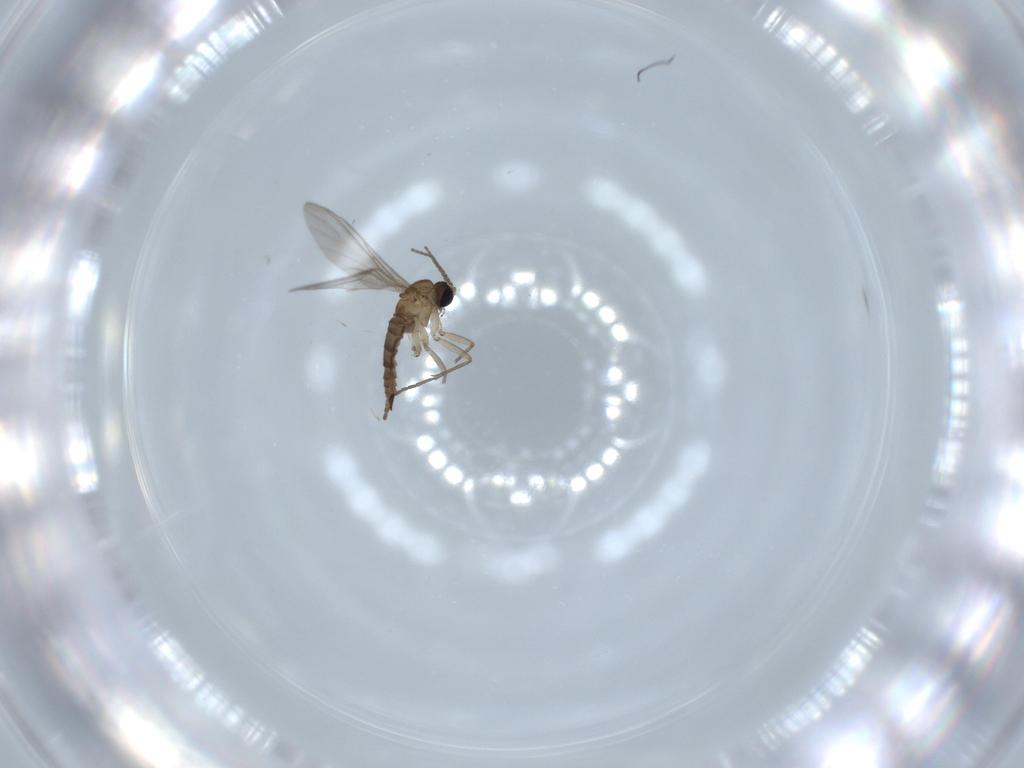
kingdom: Animalia
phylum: Arthropoda
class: Insecta
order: Diptera
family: Sciaridae
